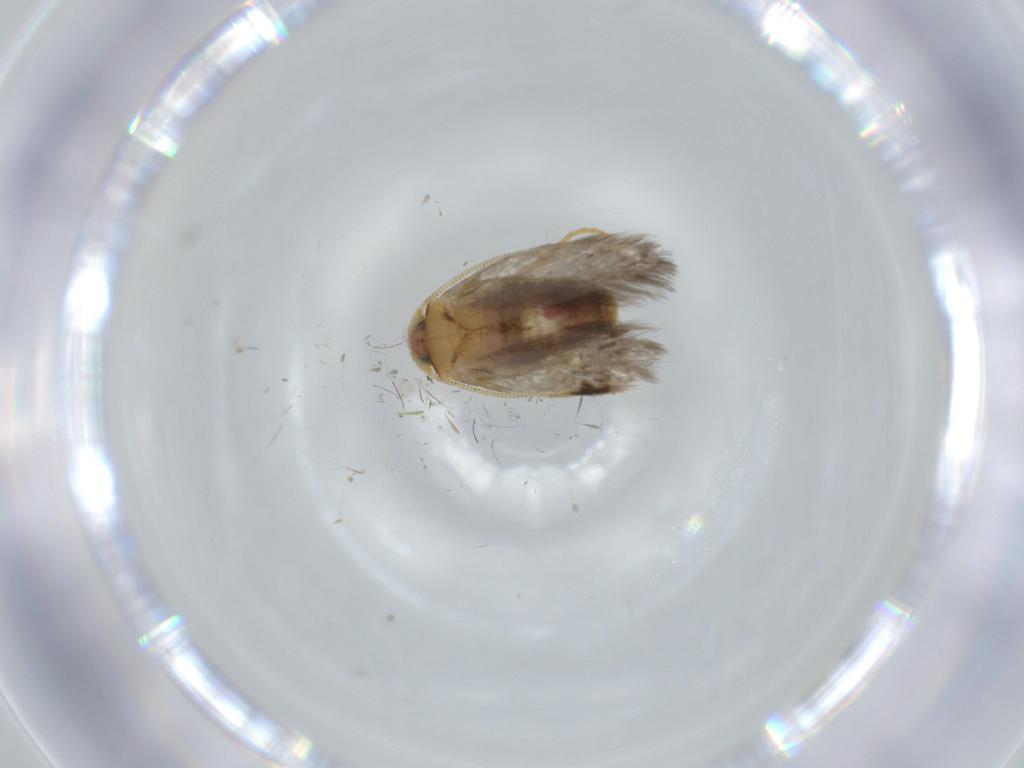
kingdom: Animalia
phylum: Arthropoda
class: Insecta
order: Lepidoptera
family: Nepticulidae
